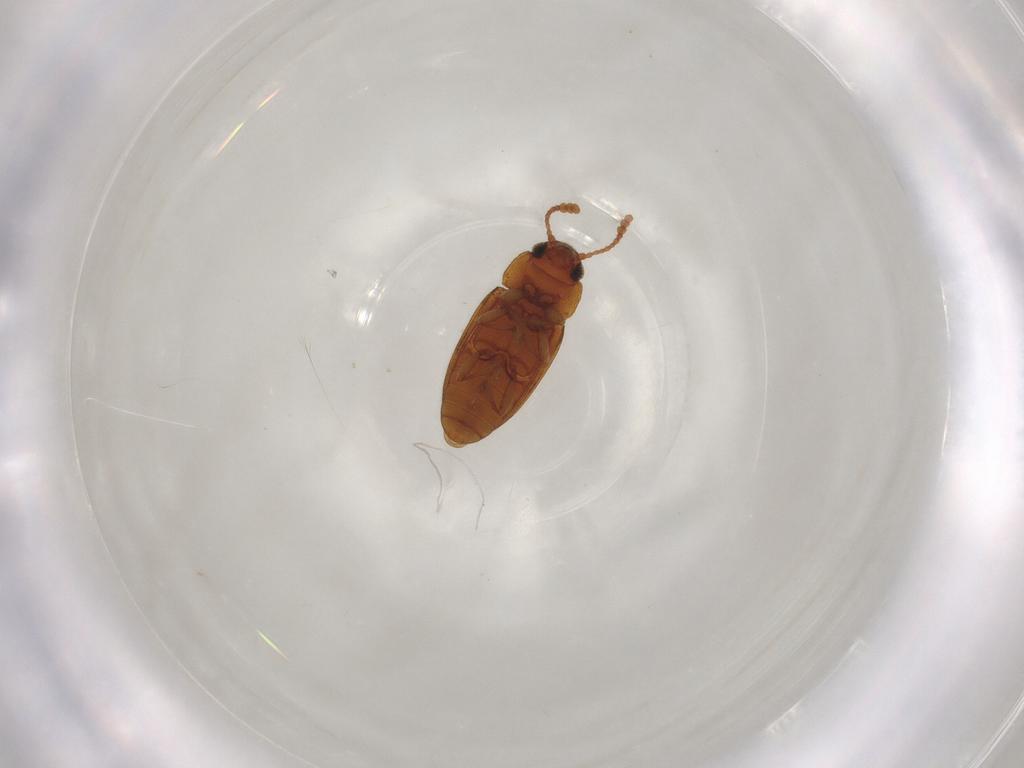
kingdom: Animalia
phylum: Arthropoda
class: Insecta
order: Coleoptera
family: Erotylidae
